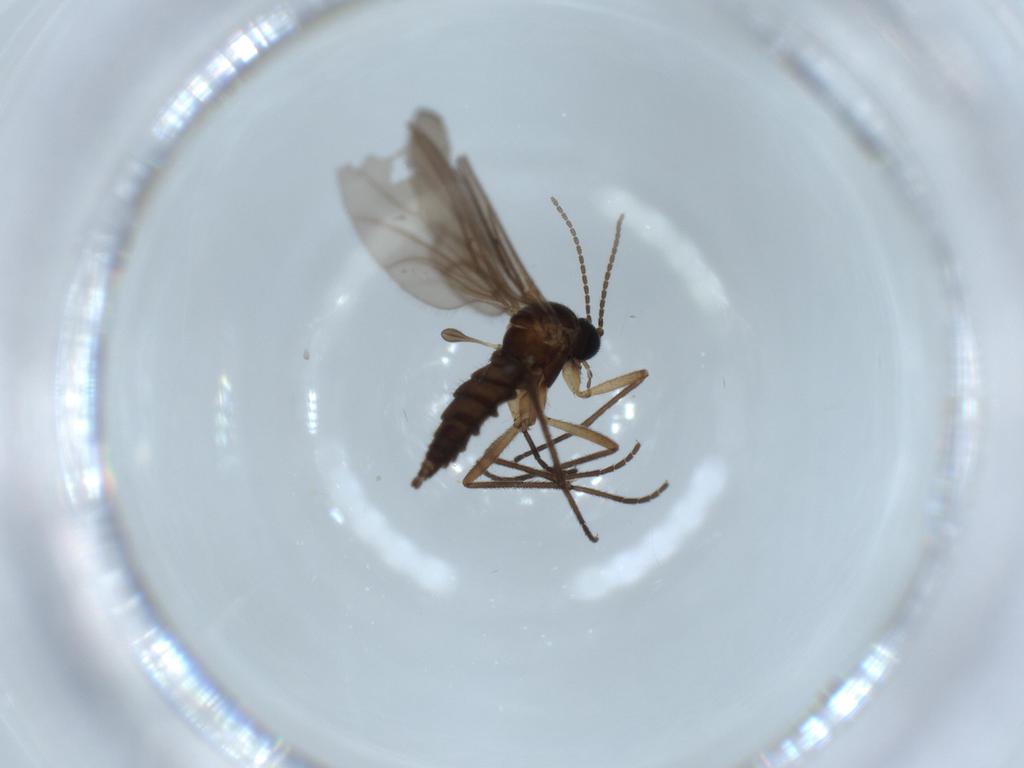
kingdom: Animalia
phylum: Arthropoda
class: Insecta
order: Diptera
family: Sciaridae
